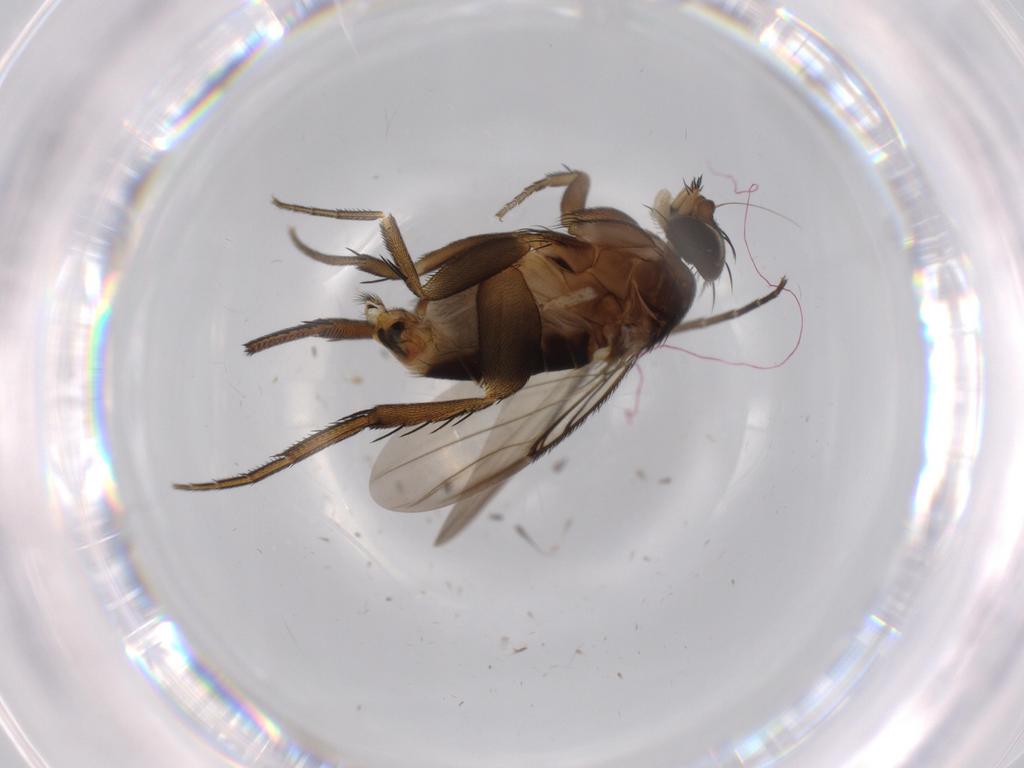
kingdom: Animalia
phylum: Arthropoda
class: Insecta
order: Diptera
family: Phoridae
